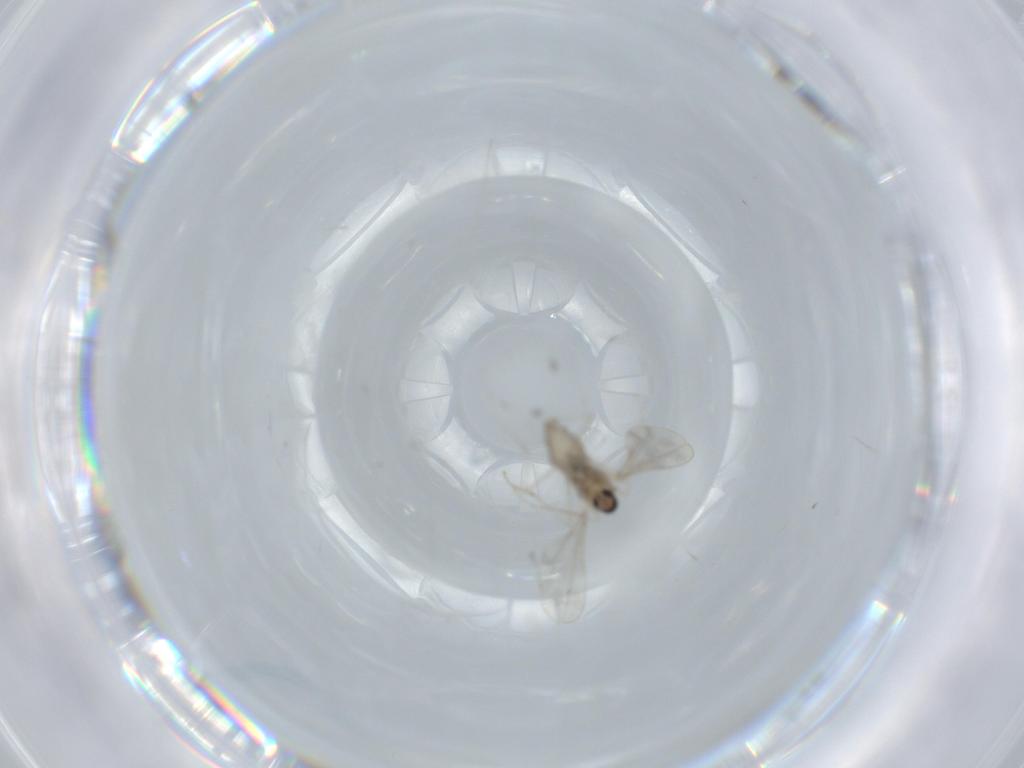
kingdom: Animalia
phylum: Arthropoda
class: Insecta
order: Diptera
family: Cecidomyiidae
